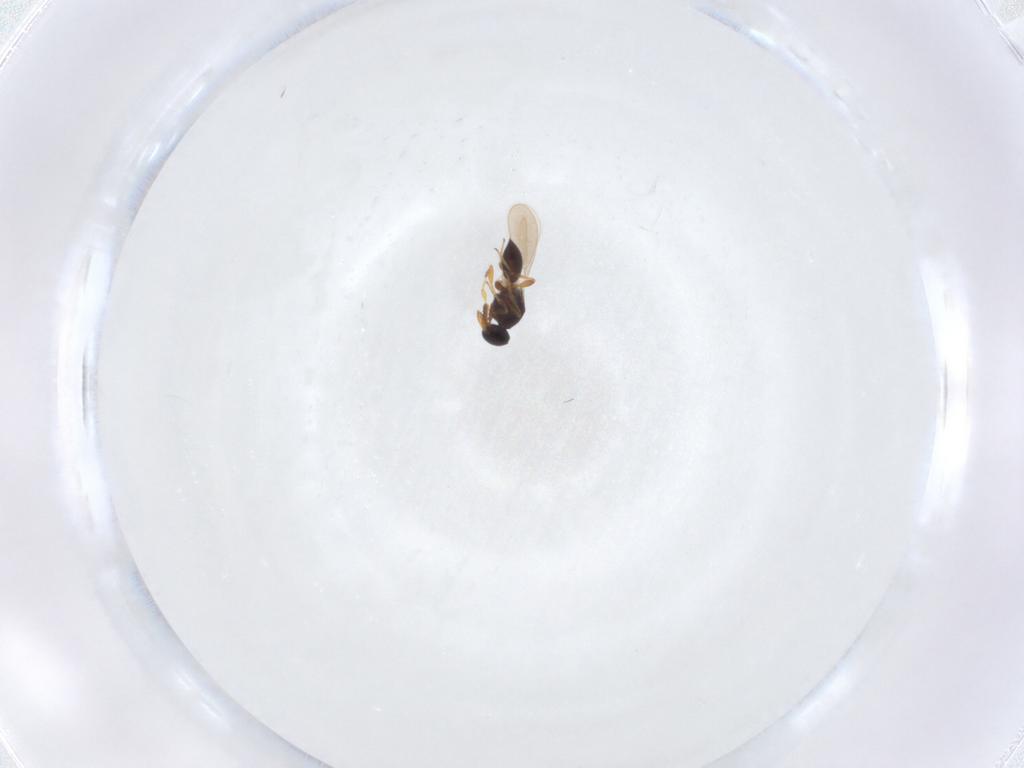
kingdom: Animalia
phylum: Arthropoda
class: Insecta
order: Hymenoptera
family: Formicidae
